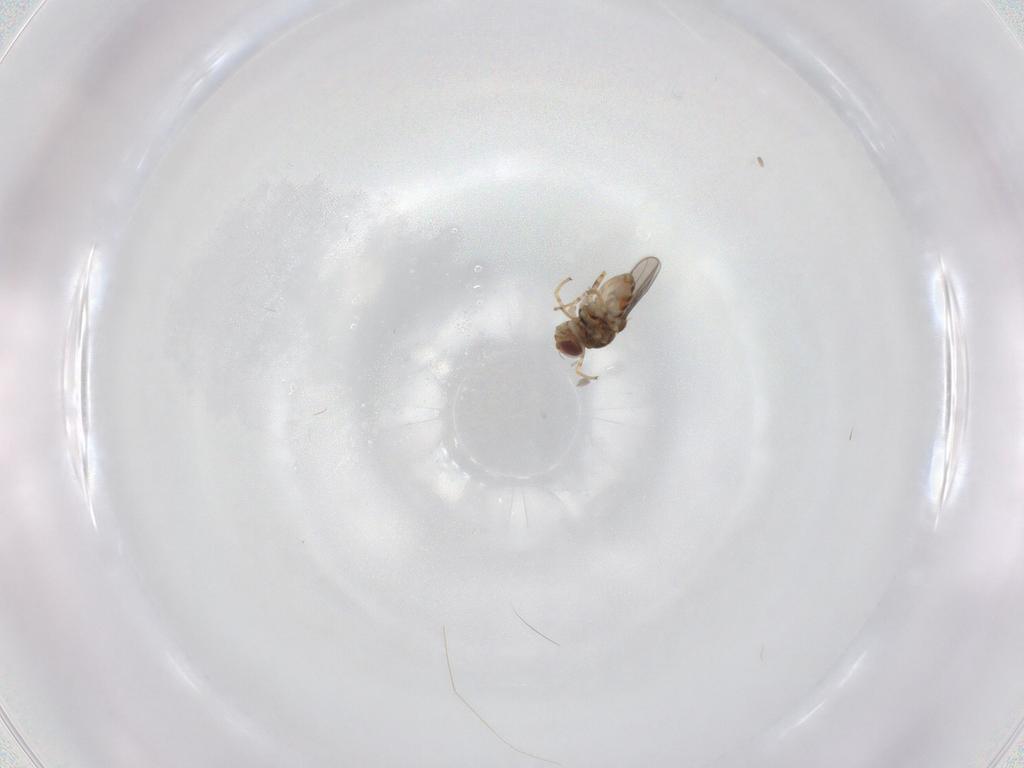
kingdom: Animalia
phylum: Arthropoda
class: Insecta
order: Diptera
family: Chloropidae
